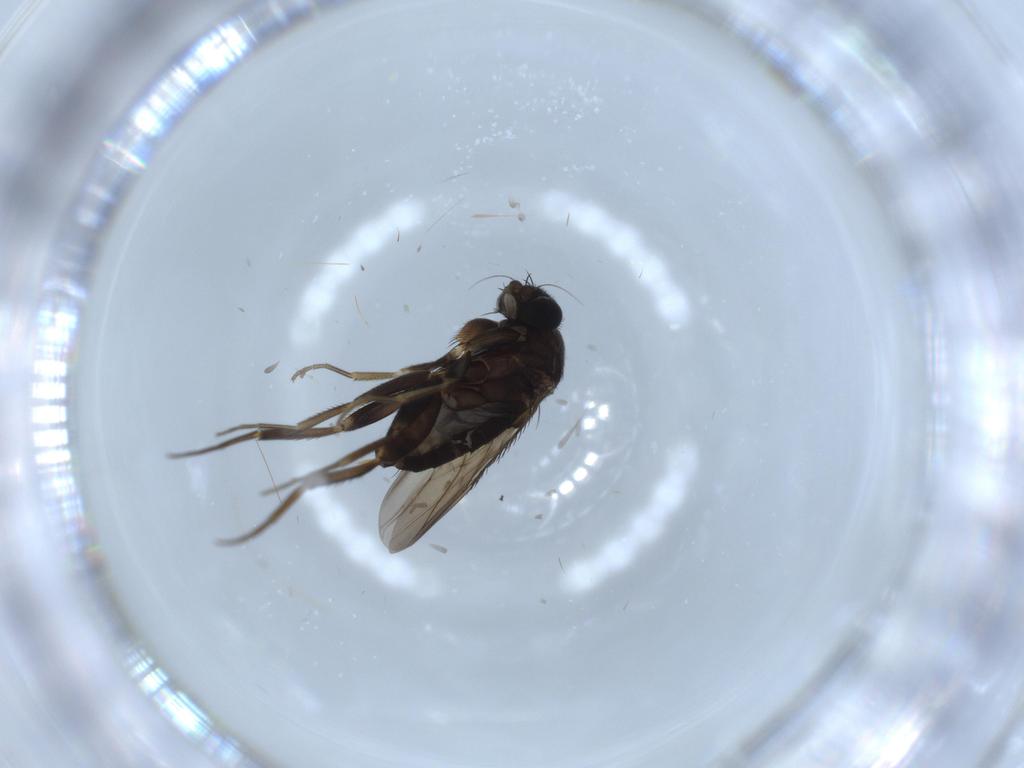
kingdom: Animalia
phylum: Arthropoda
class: Insecta
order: Diptera
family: Phoridae
